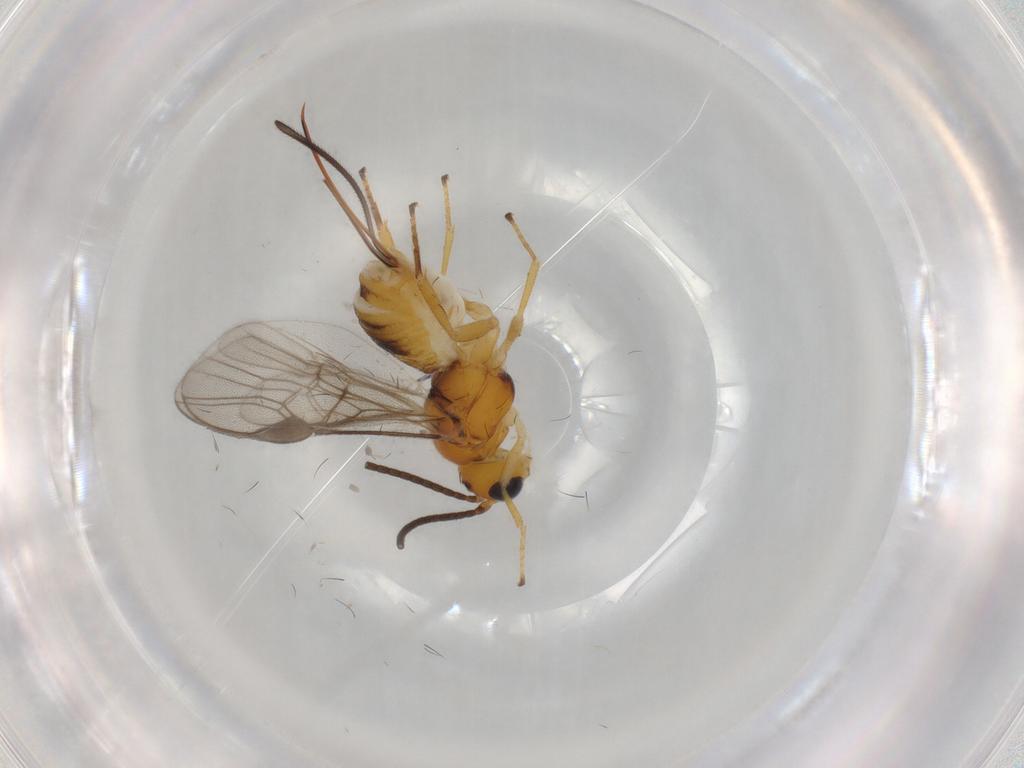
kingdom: Animalia
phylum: Arthropoda
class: Insecta
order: Hymenoptera
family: Braconidae
